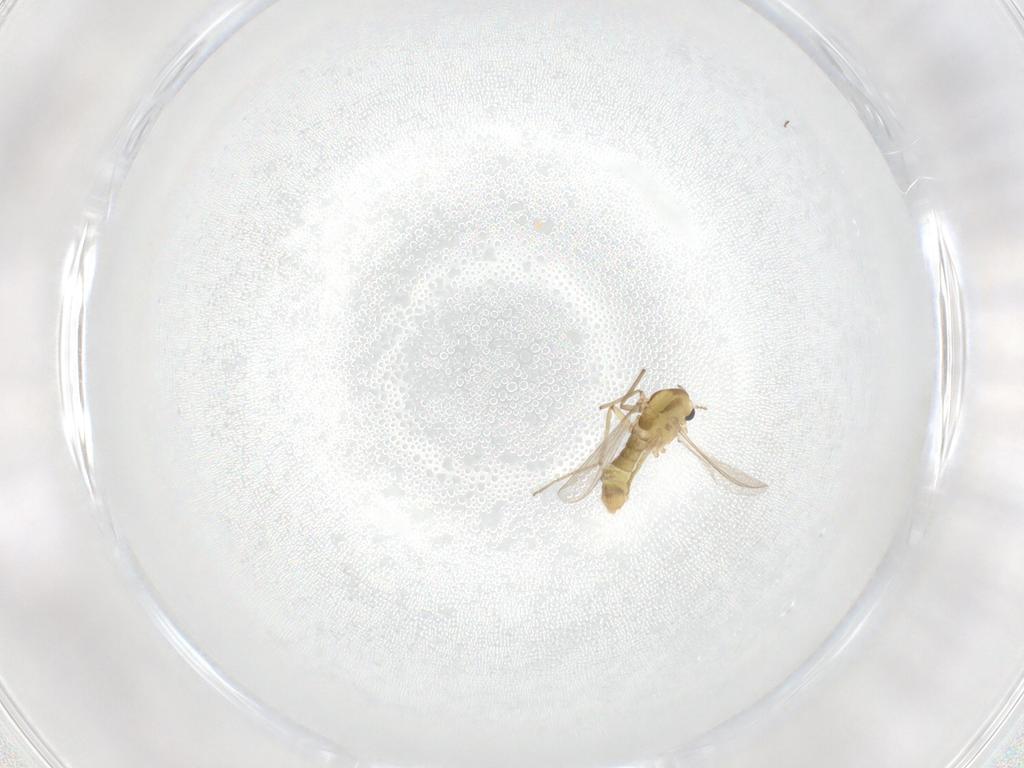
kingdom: Animalia
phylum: Arthropoda
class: Insecta
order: Diptera
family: Chironomidae
